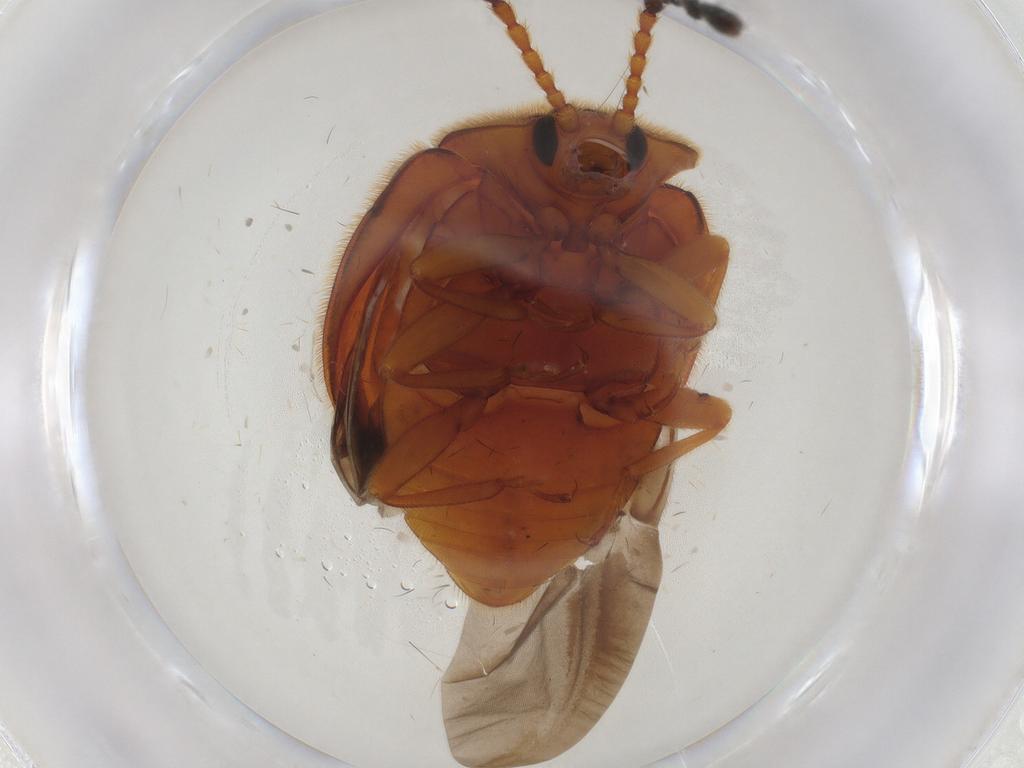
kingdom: Animalia
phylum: Arthropoda
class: Insecta
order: Coleoptera
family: Endomychidae
